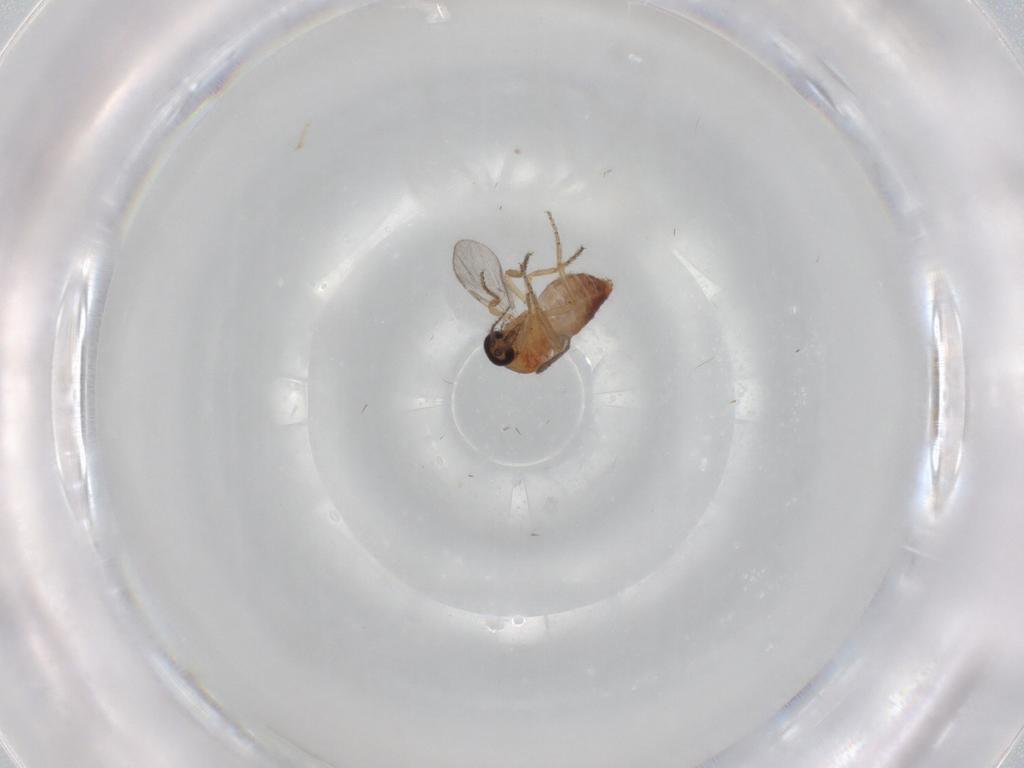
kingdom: Animalia
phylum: Arthropoda
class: Insecta
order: Diptera
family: Ceratopogonidae
